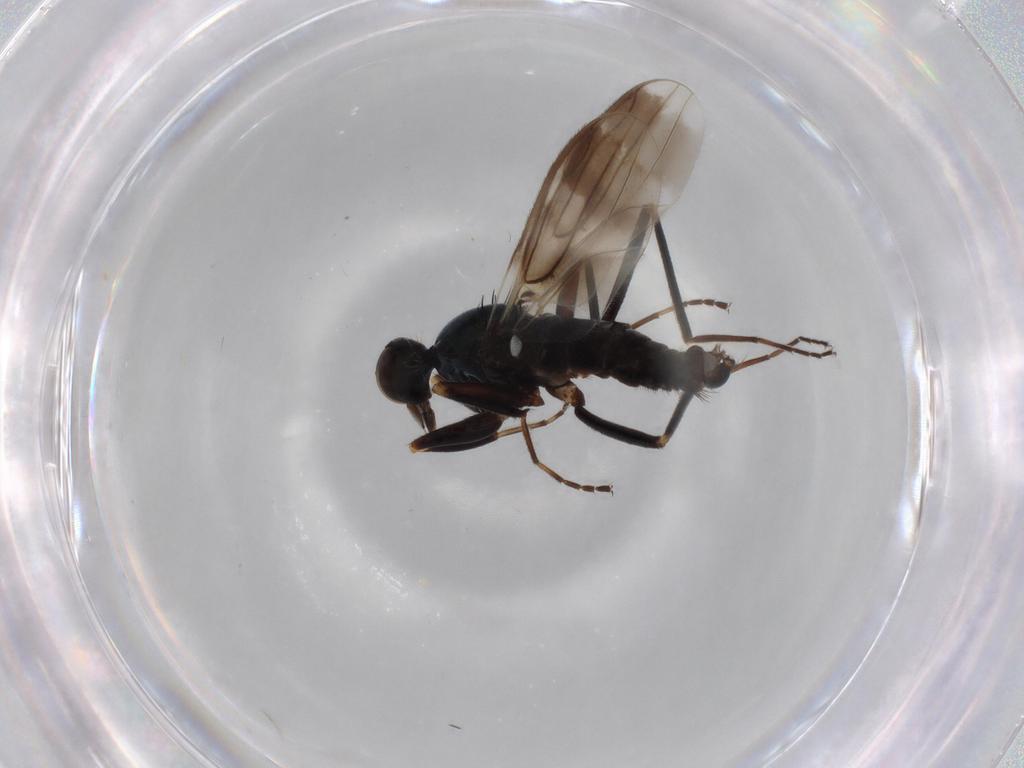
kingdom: Animalia
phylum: Arthropoda
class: Insecta
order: Diptera
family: Cecidomyiidae
